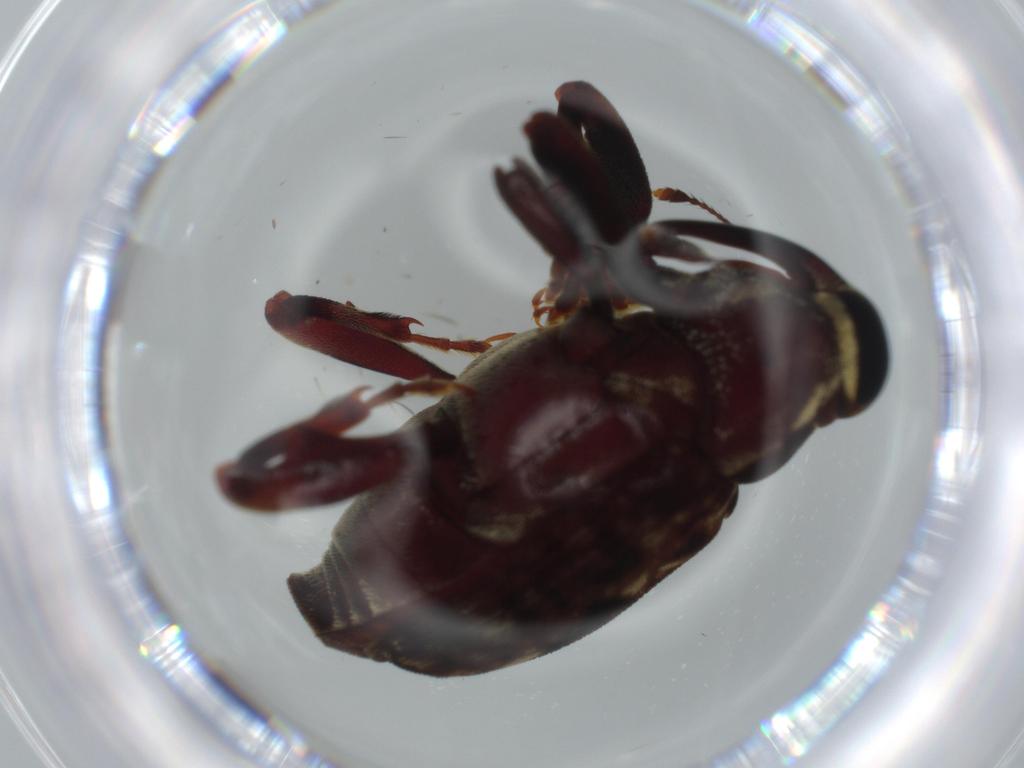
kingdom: Animalia
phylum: Arthropoda
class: Insecta
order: Coleoptera
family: Curculionidae
